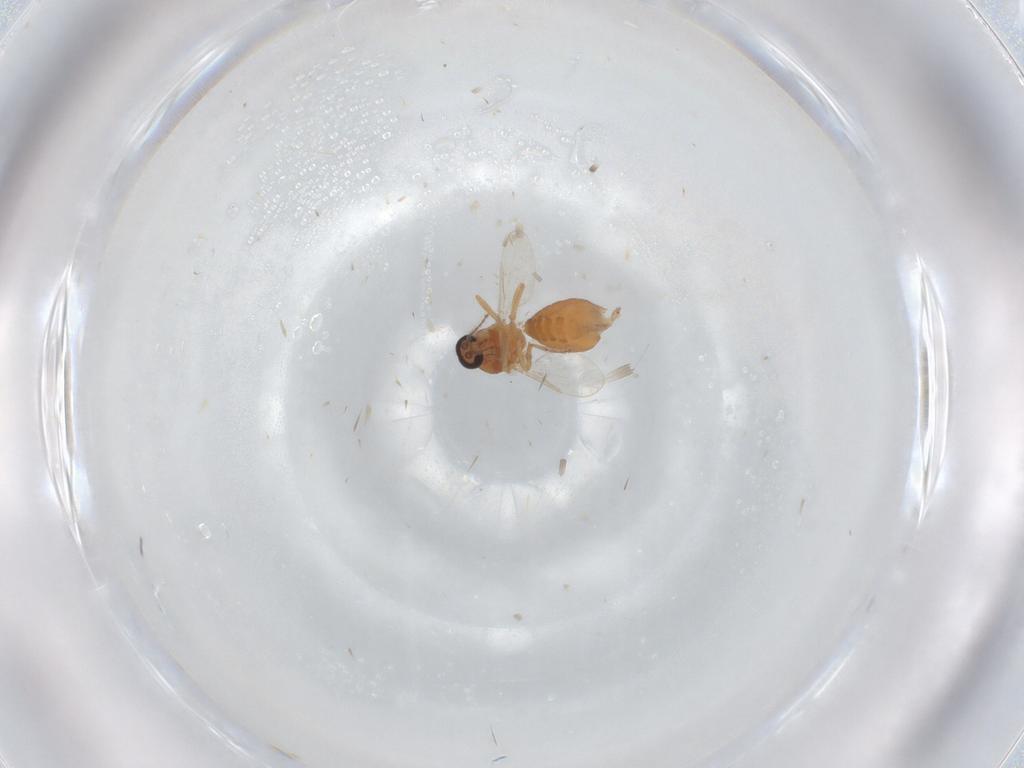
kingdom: Animalia
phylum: Arthropoda
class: Insecta
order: Diptera
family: Ceratopogonidae
